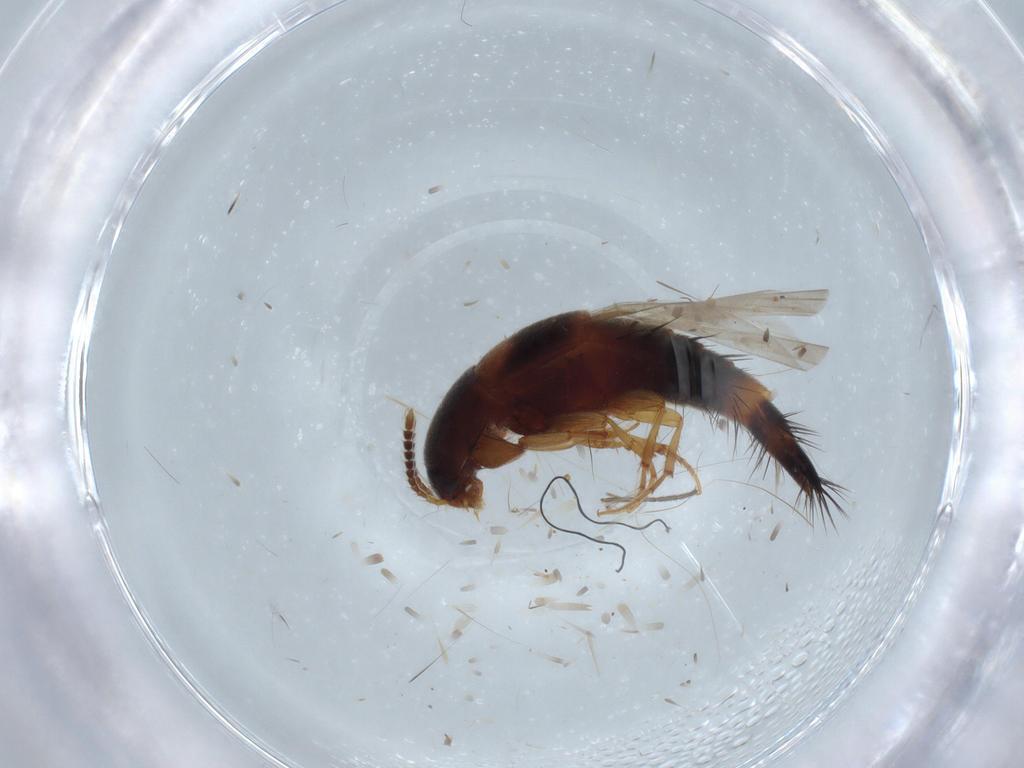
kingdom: Animalia
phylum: Arthropoda
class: Insecta
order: Coleoptera
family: Staphylinidae
